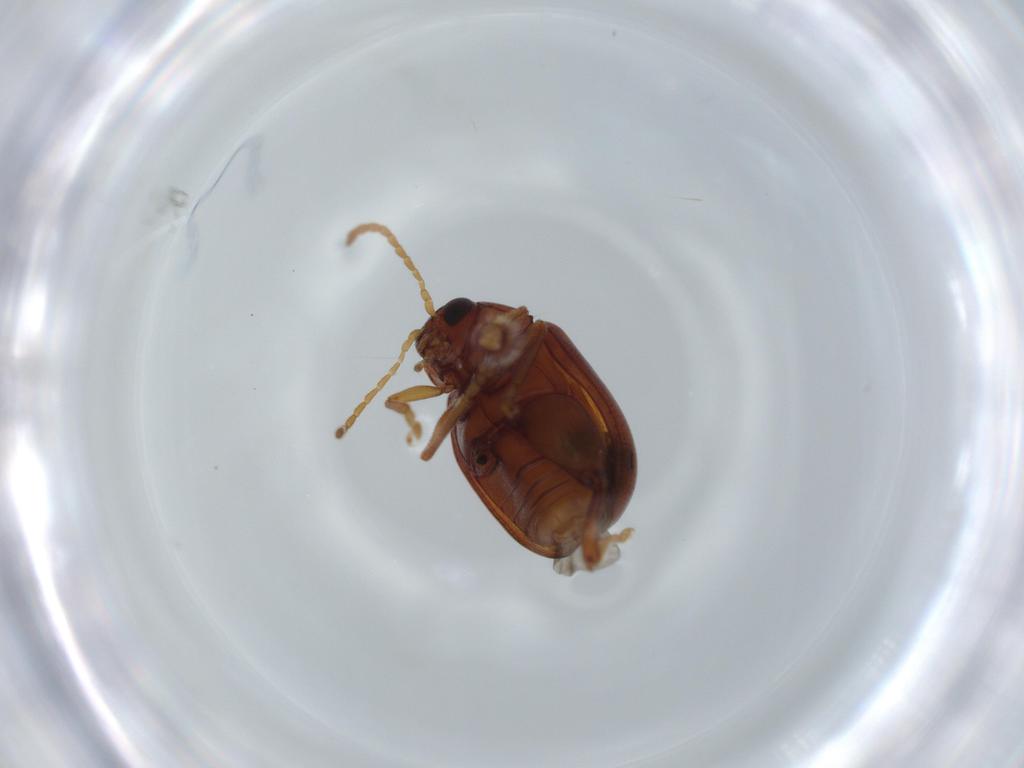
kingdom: Animalia
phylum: Arthropoda
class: Insecta
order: Coleoptera
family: Chrysomelidae
